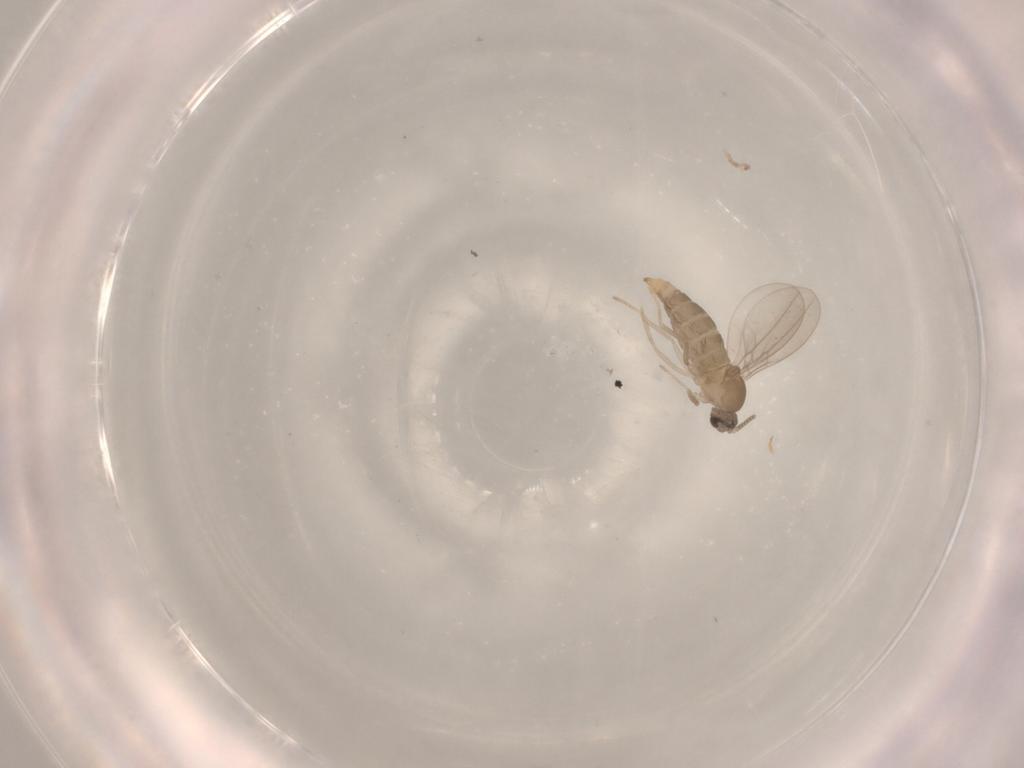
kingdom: Animalia
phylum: Arthropoda
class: Insecta
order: Diptera
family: Cecidomyiidae
